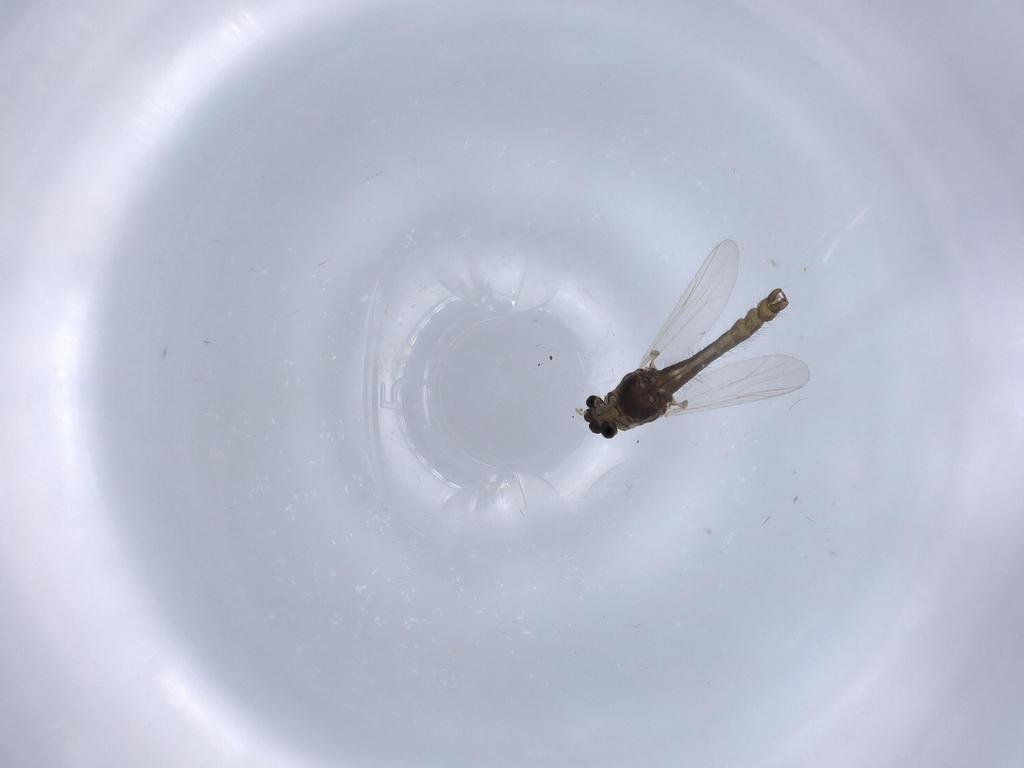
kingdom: Animalia
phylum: Arthropoda
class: Insecta
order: Diptera
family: Chironomidae
